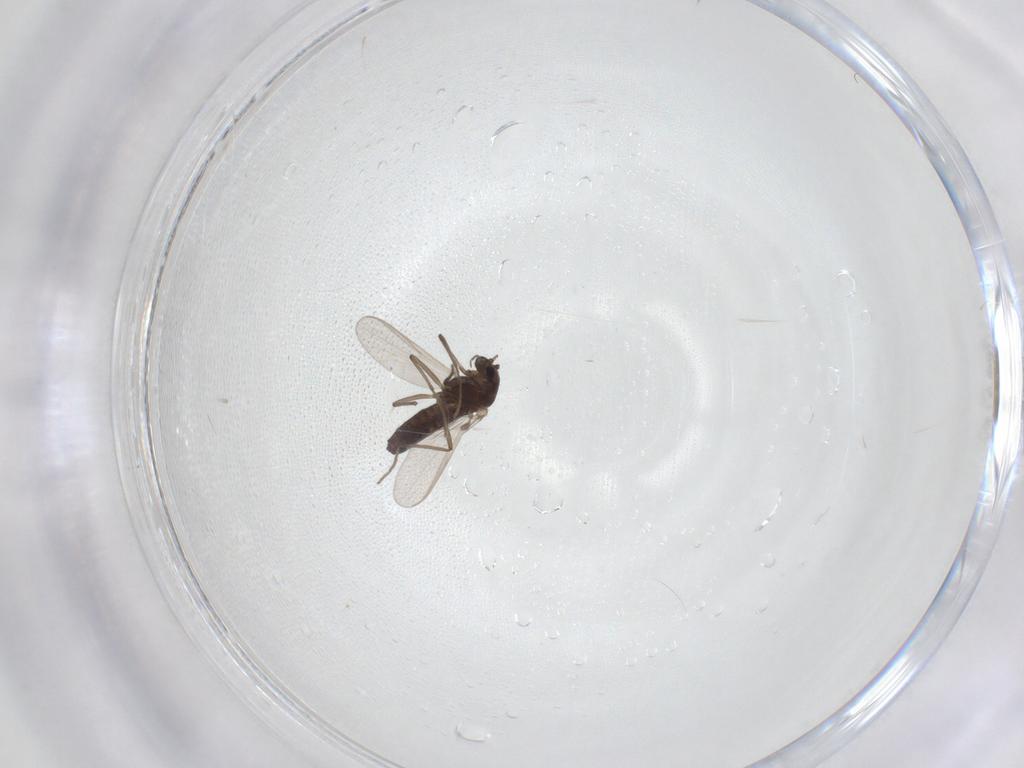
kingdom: Animalia
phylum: Arthropoda
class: Insecta
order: Diptera
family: Chironomidae
